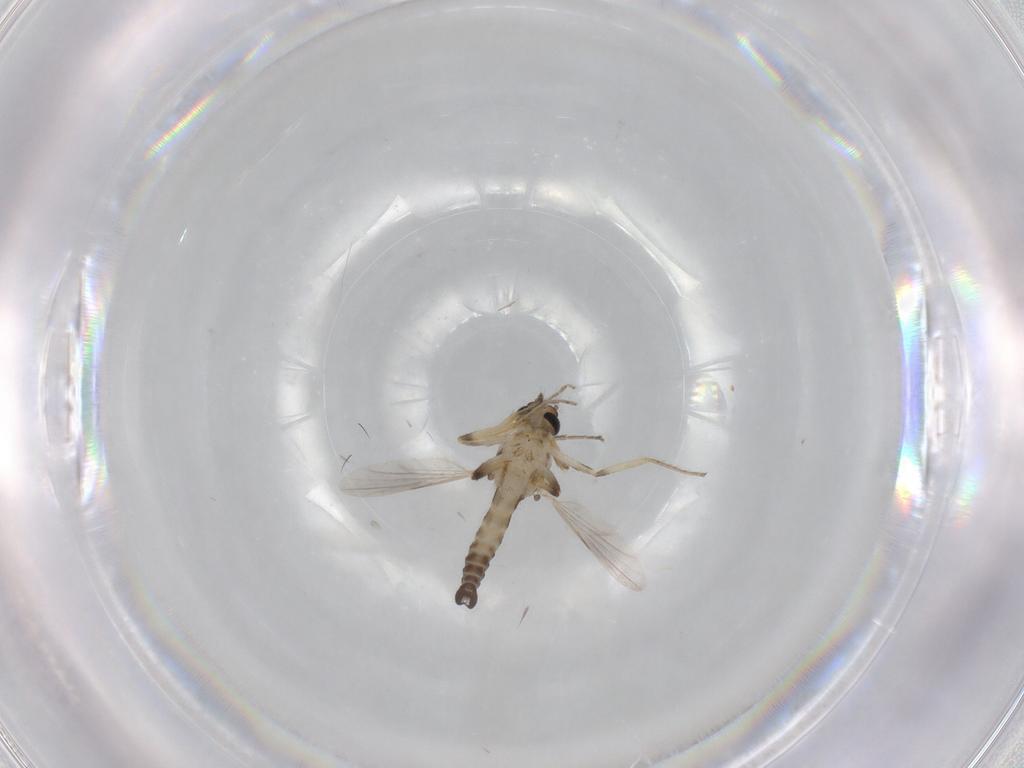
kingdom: Animalia
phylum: Arthropoda
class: Insecta
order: Diptera
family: Ceratopogonidae
